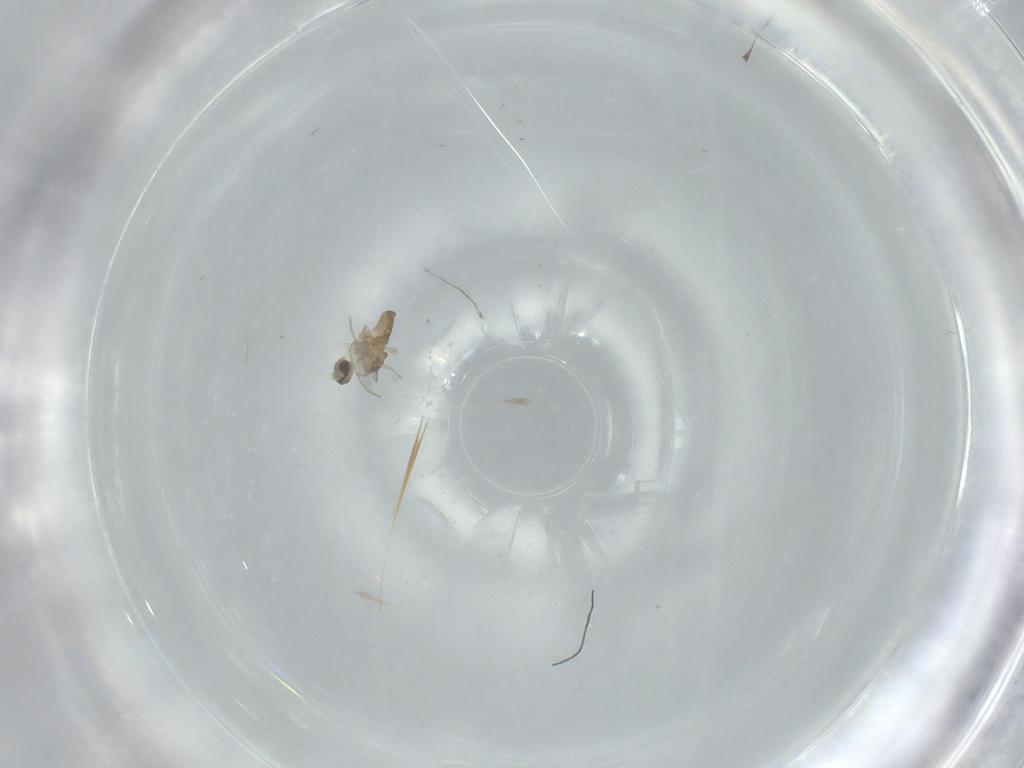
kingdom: Animalia
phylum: Arthropoda
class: Insecta
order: Diptera
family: Cecidomyiidae
